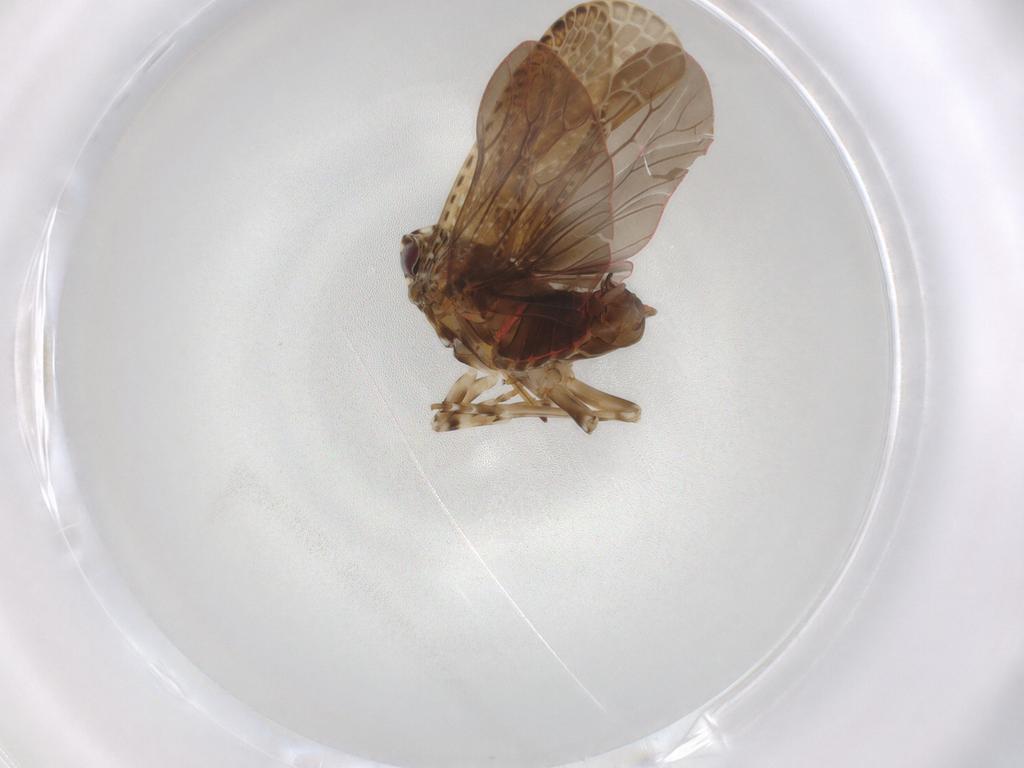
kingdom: Animalia
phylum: Arthropoda
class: Insecta
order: Hemiptera
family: Achilidae
